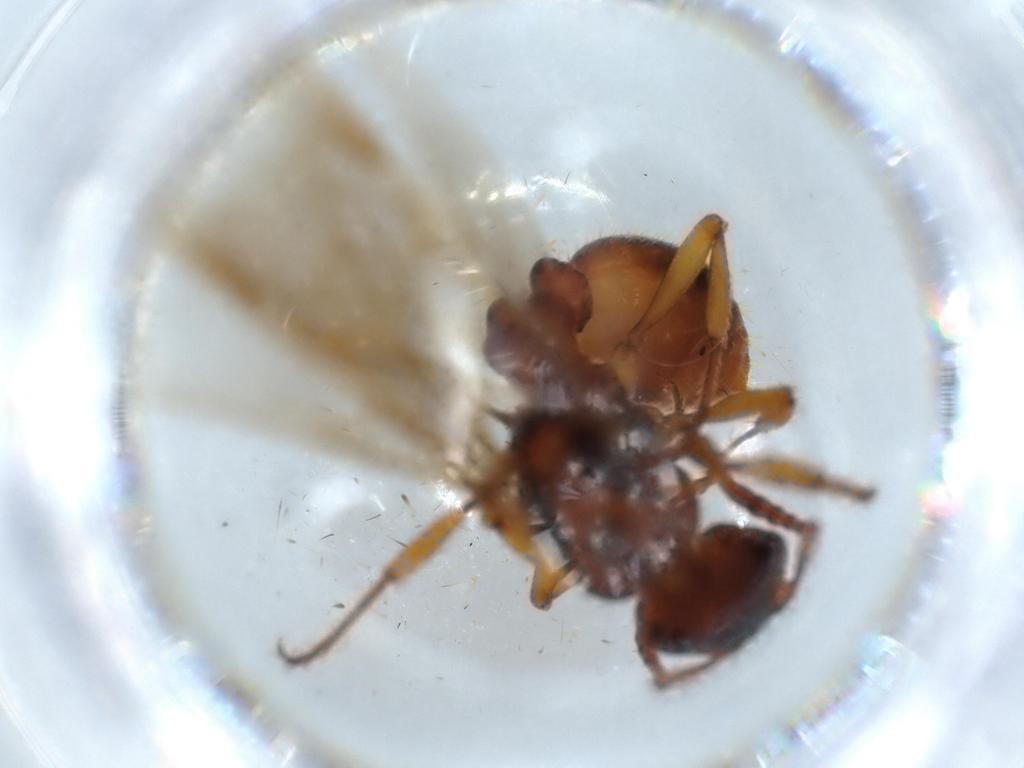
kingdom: Animalia
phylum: Arthropoda
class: Insecta
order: Hymenoptera
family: Formicidae
